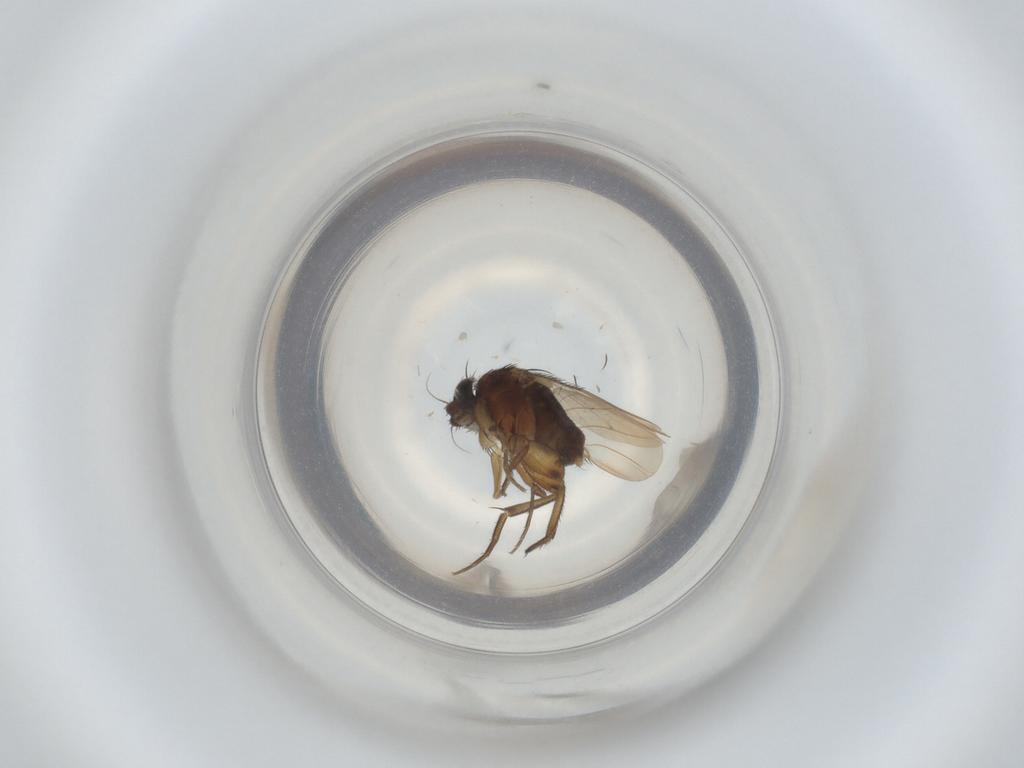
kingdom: Animalia
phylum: Arthropoda
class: Insecta
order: Diptera
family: Phoridae
